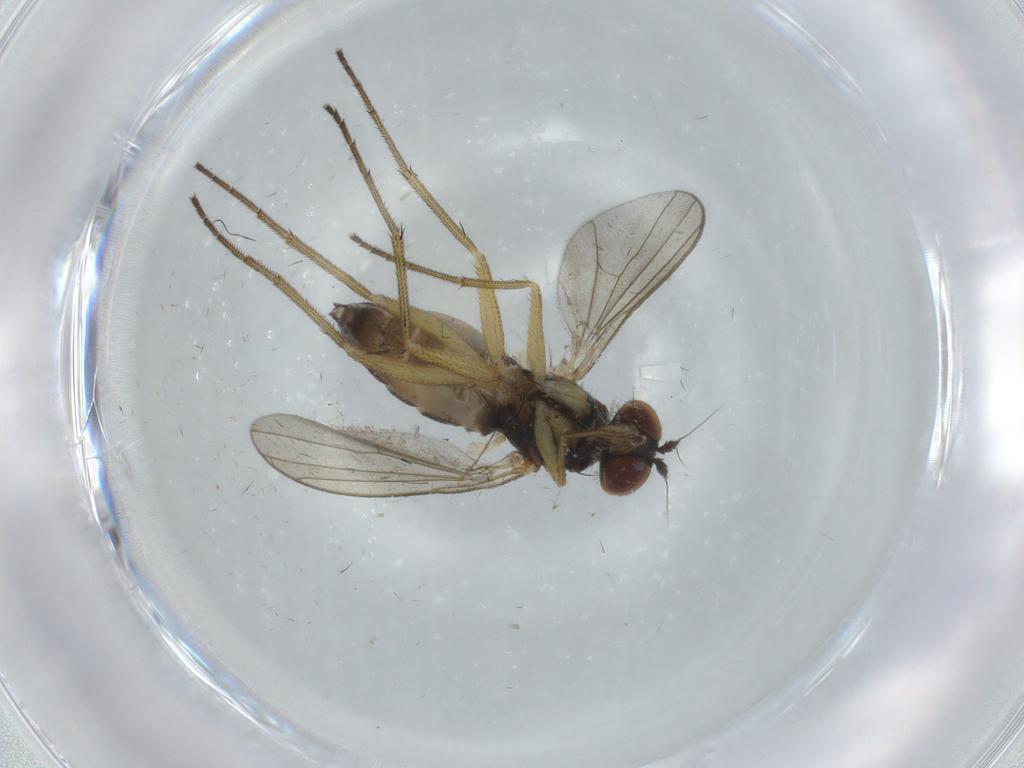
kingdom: Animalia
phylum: Arthropoda
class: Insecta
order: Diptera
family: Dolichopodidae
